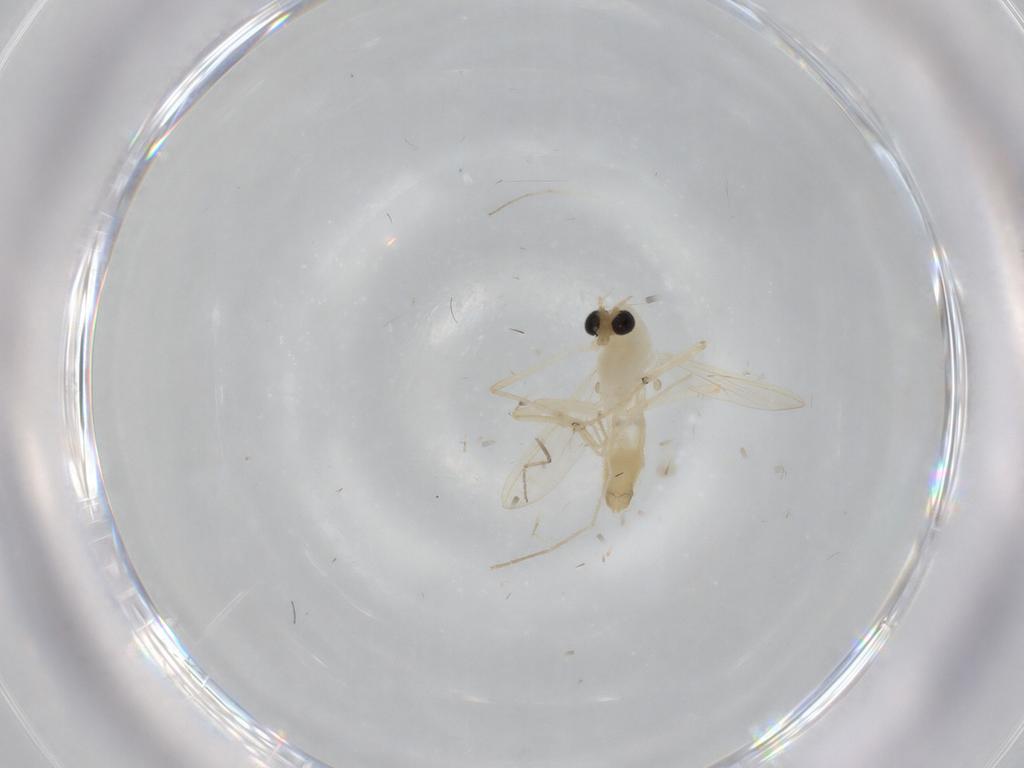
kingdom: Animalia
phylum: Arthropoda
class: Insecta
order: Diptera
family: Chironomidae
